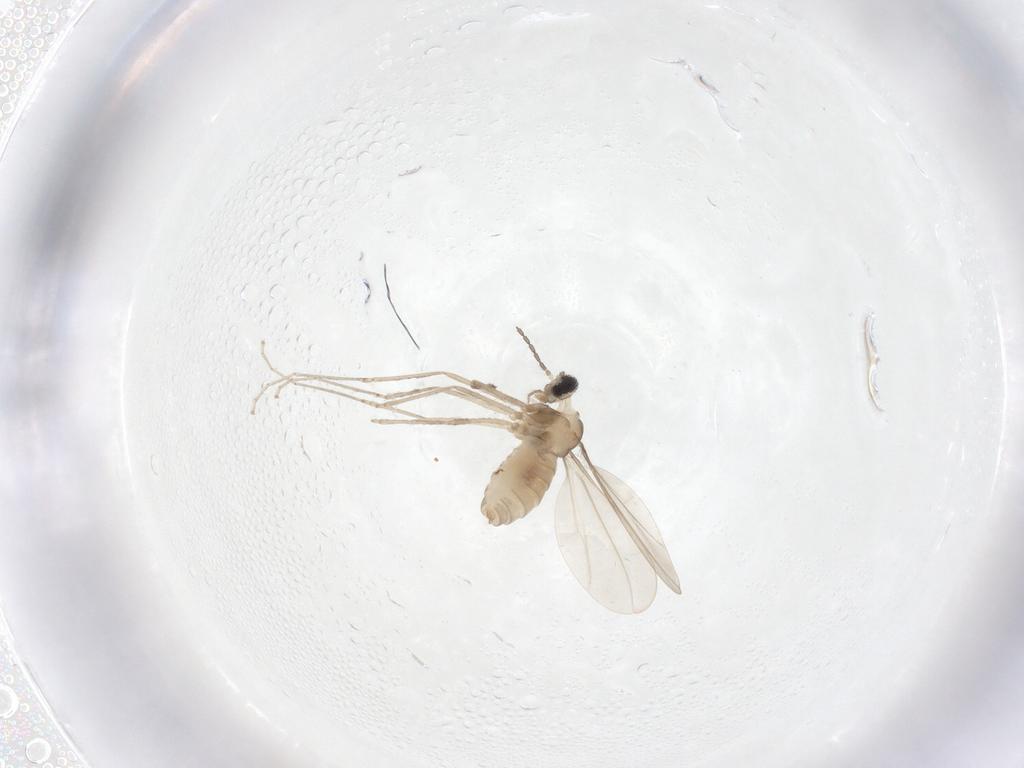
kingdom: Animalia
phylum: Arthropoda
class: Insecta
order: Diptera
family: Cecidomyiidae
